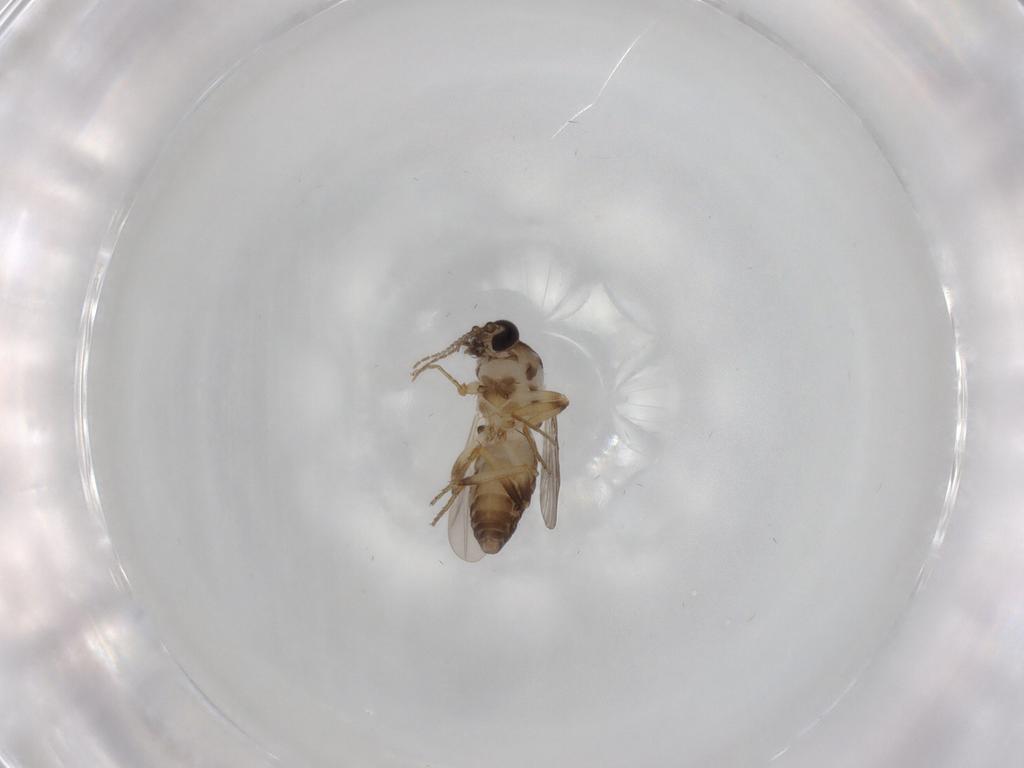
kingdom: Animalia
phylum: Arthropoda
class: Insecta
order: Diptera
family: Ceratopogonidae
